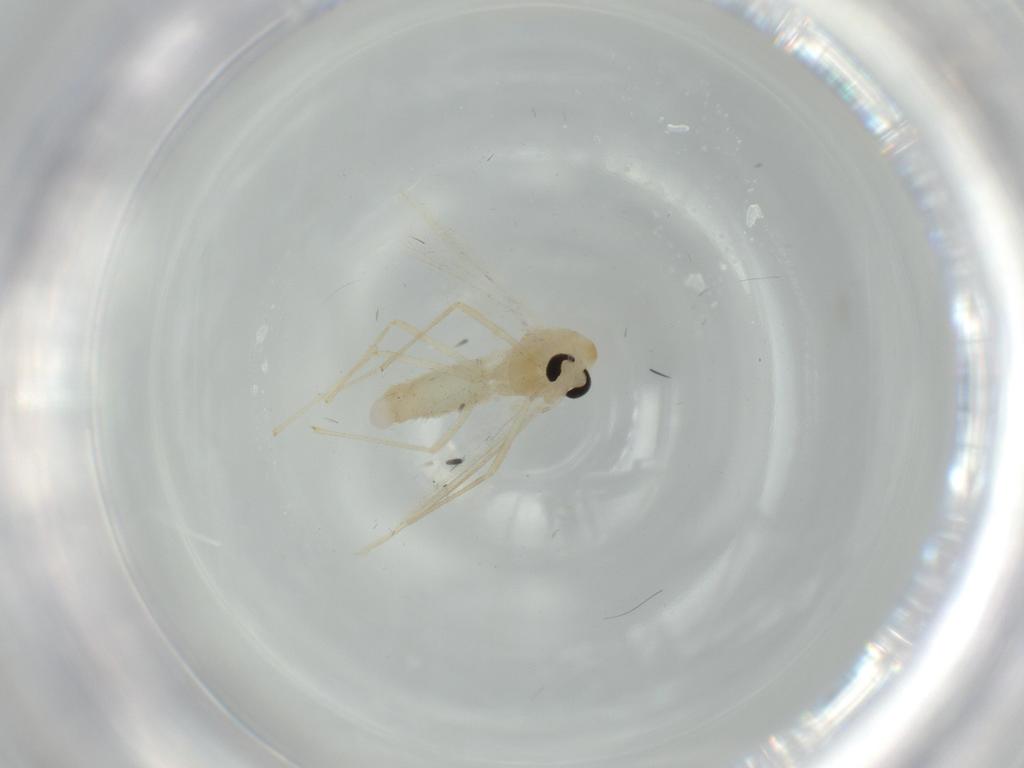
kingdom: Animalia
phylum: Arthropoda
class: Insecta
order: Diptera
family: Chironomidae
